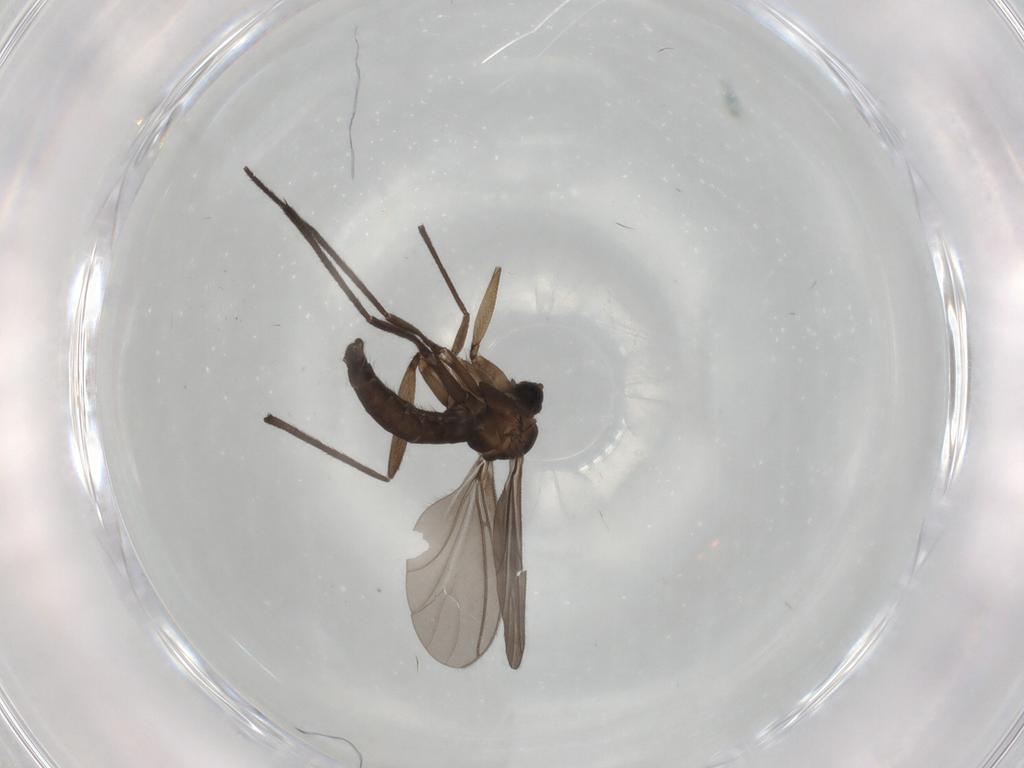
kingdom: Animalia
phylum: Arthropoda
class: Insecta
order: Diptera
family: Sciaridae
